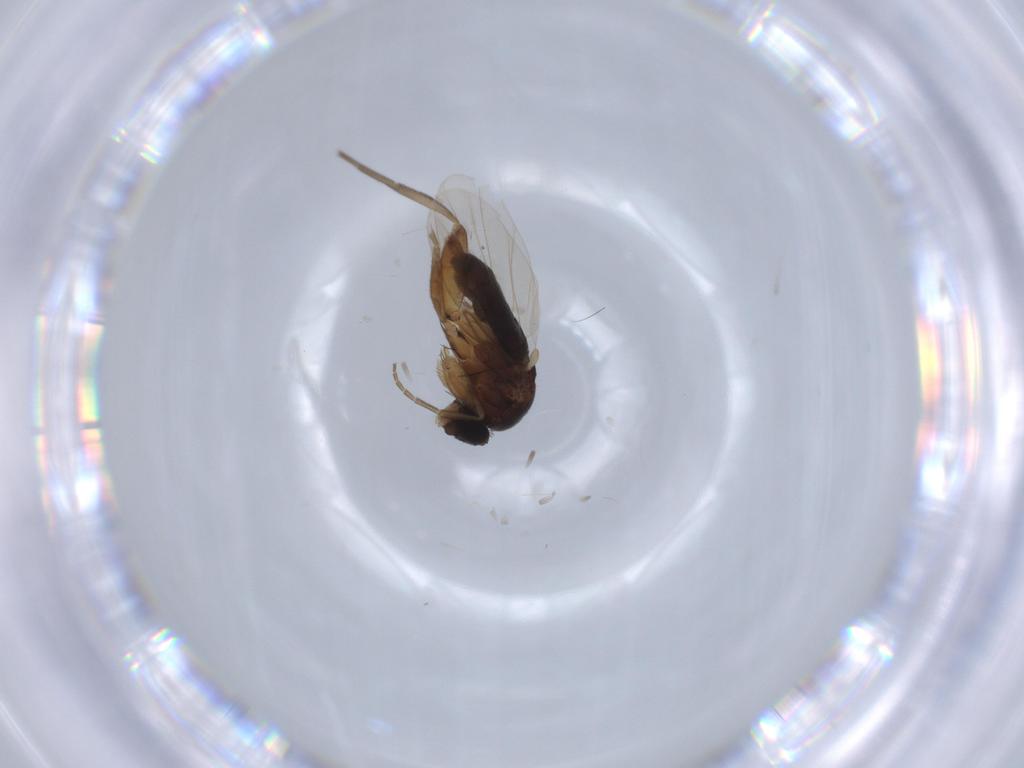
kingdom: Animalia
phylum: Arthropoda
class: Insecta
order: Diptera
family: Phoridae
